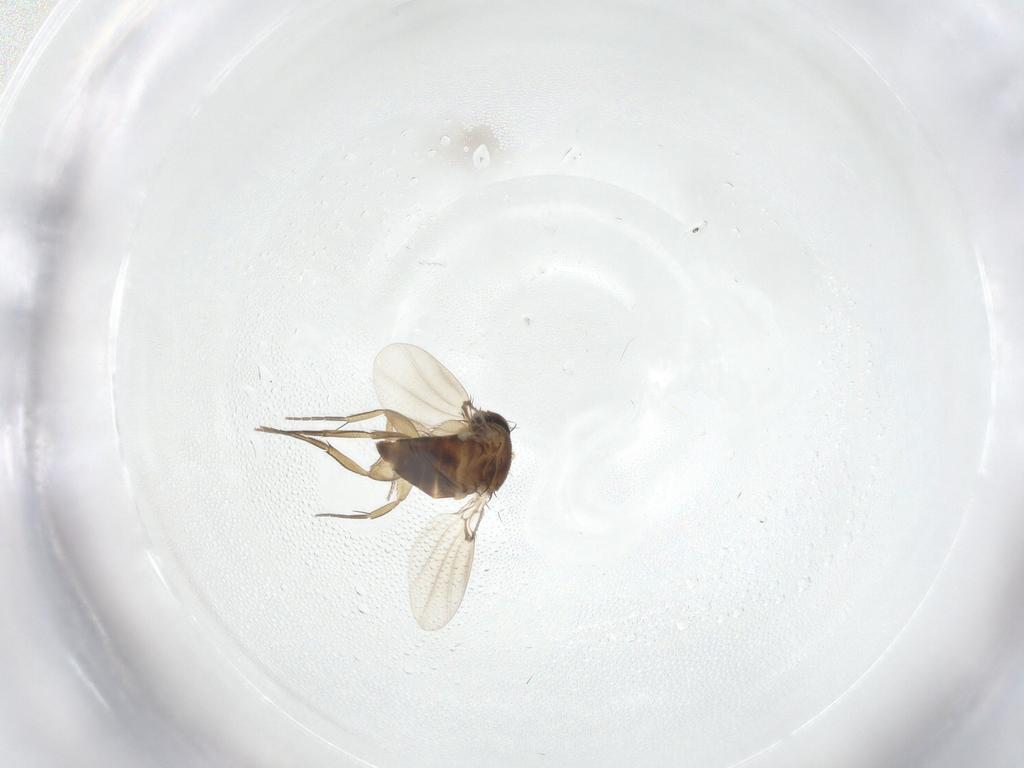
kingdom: Animalia
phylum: Arthropoda
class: Insecta
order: Diptera
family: Phoridae
